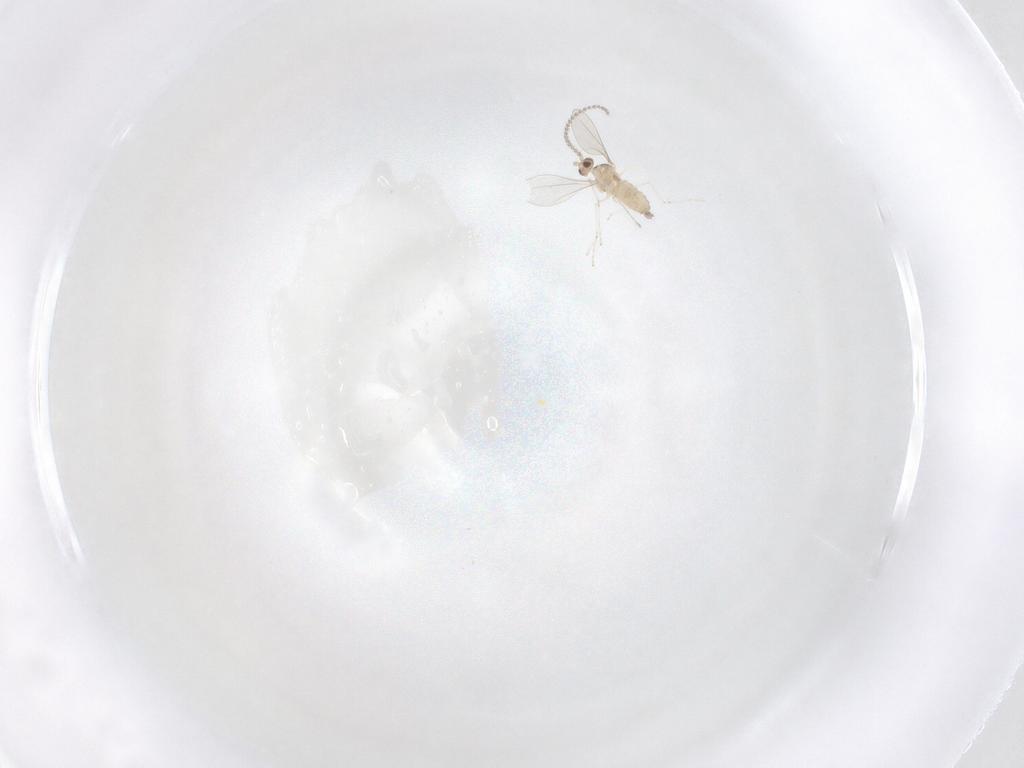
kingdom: Animalia
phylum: Arthropoda
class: Insecta
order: Diptera
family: Cecidomyiidae
